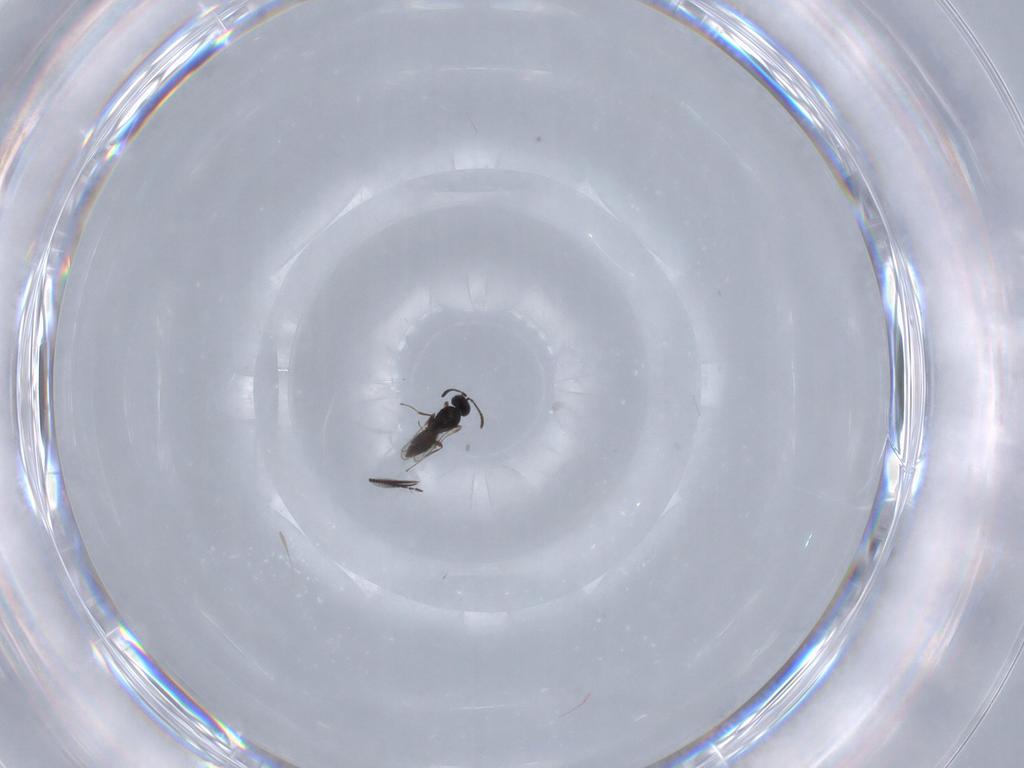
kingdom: Animalia
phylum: Arthropoda
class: Insecta
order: Hymenoptera
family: Scelionidae
